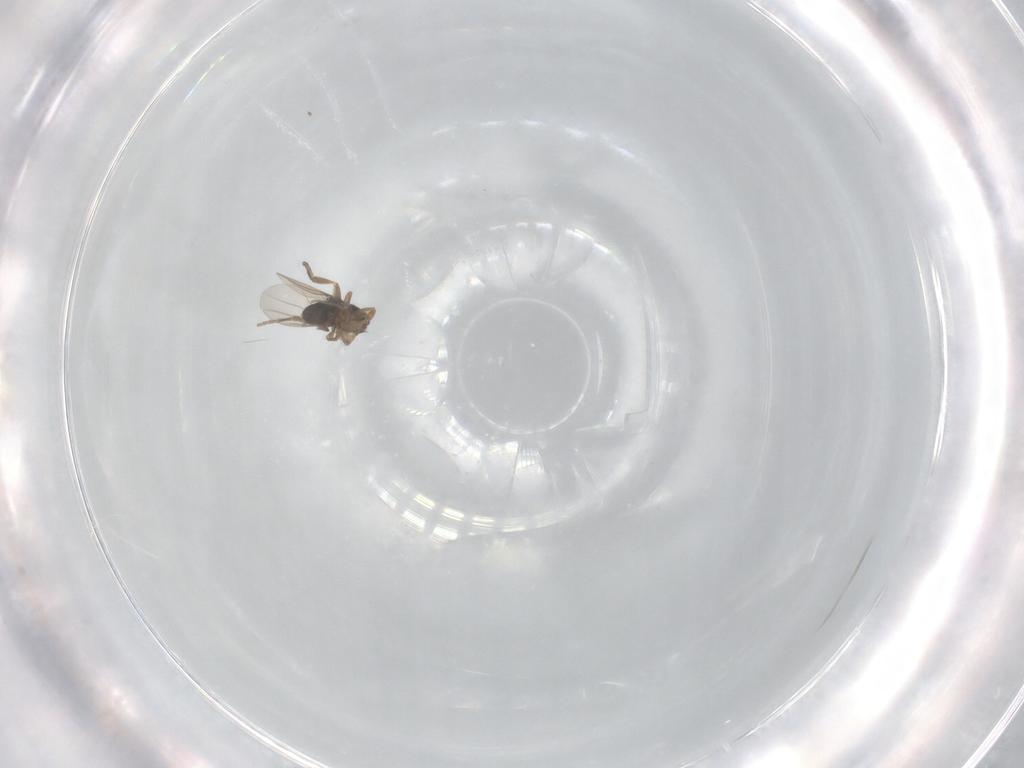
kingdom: Animalia
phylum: Arthropoda
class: Insecta
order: Diptera
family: Phoridae
